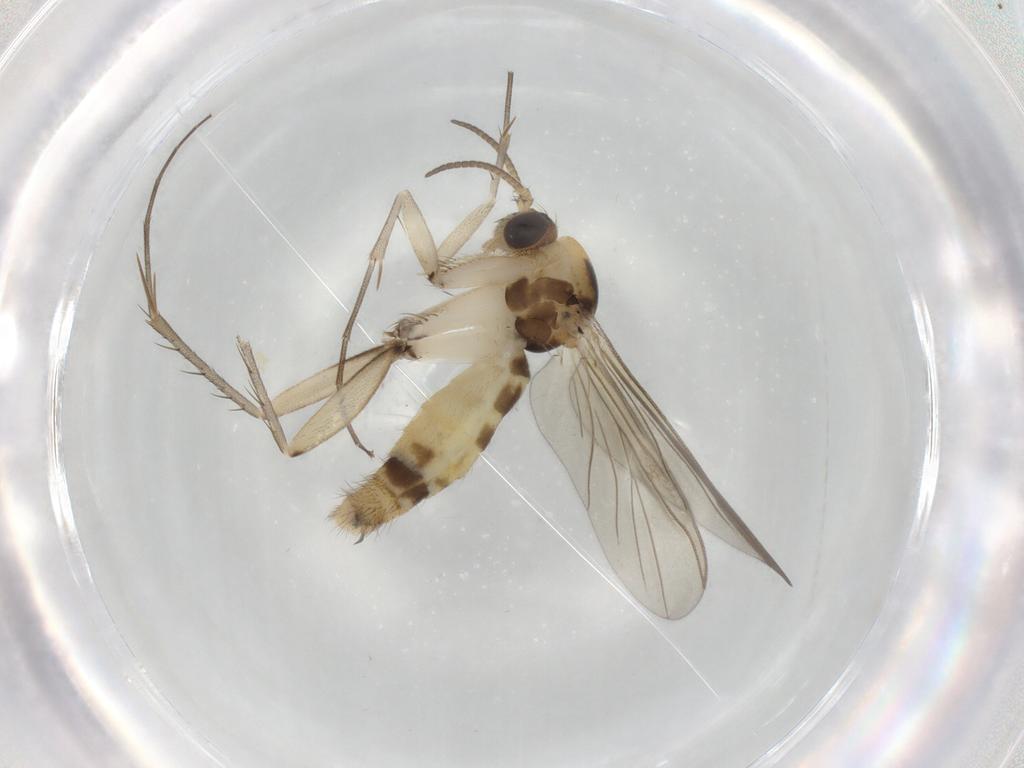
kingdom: Animalia
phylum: Arthropoda
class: Insecta
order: Diptera
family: Mycetophilidae
